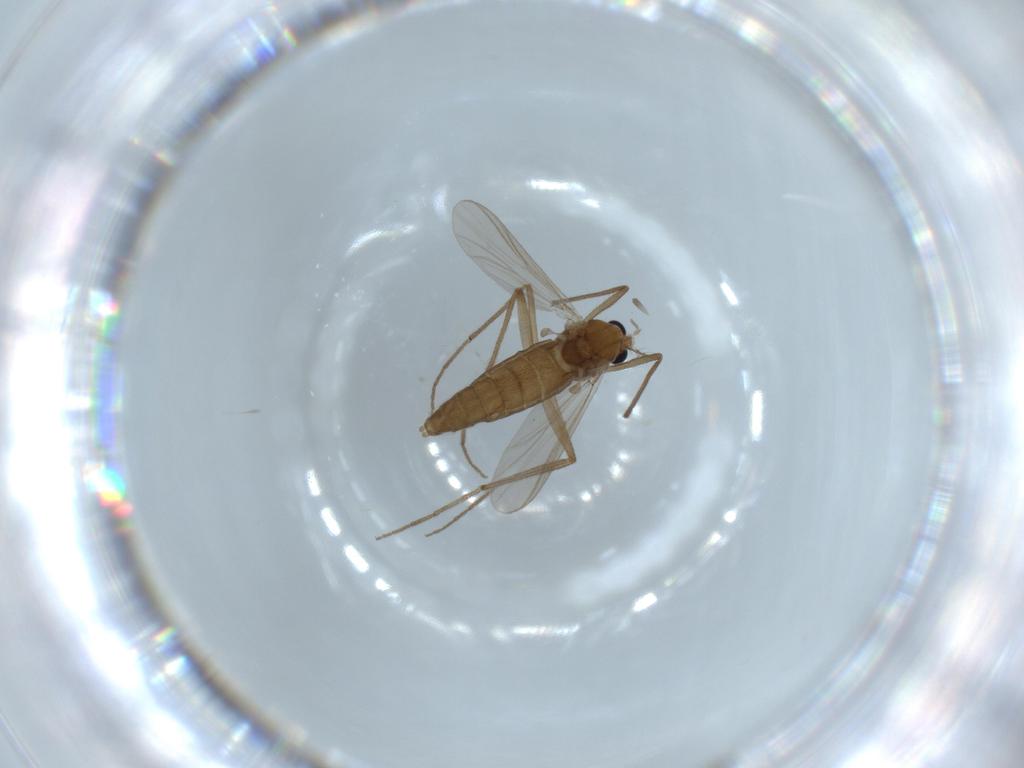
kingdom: Animalia
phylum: Arthropoda
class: Insecta
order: Diptera
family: Chironomidae
